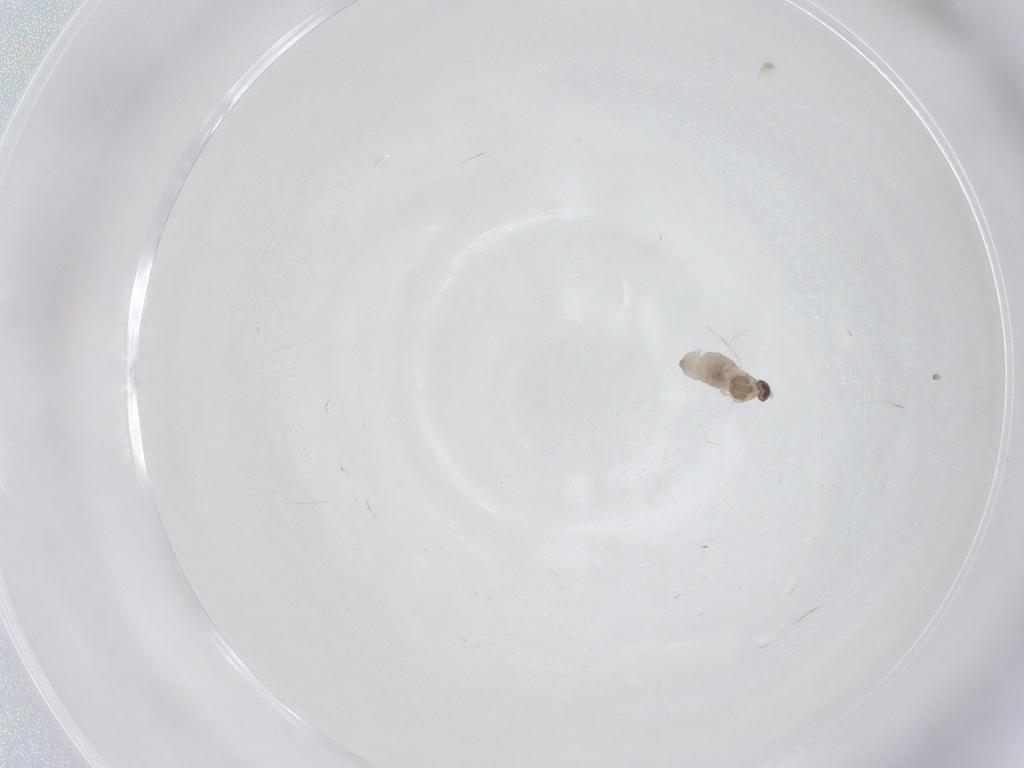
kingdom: Animalia
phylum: Arthropoda
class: Insecta
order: Diptera
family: Cecidomyiidae
